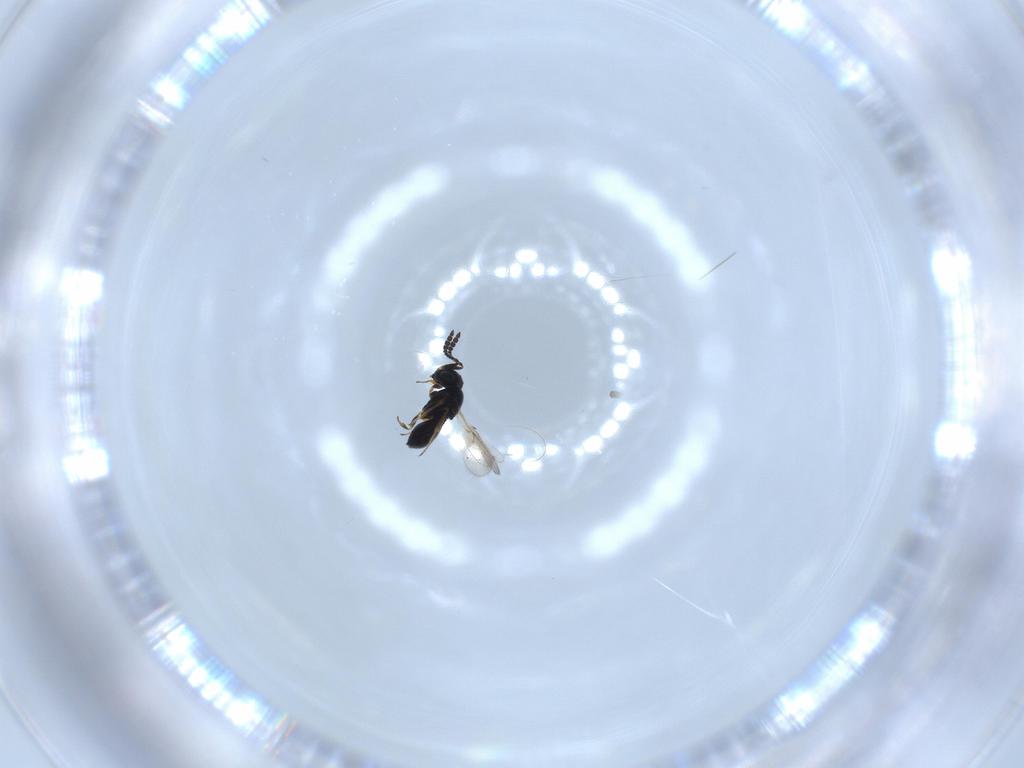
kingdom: Animalia
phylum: Arthropoda
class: Insecta
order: Hymenoptera
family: Scelionidae
